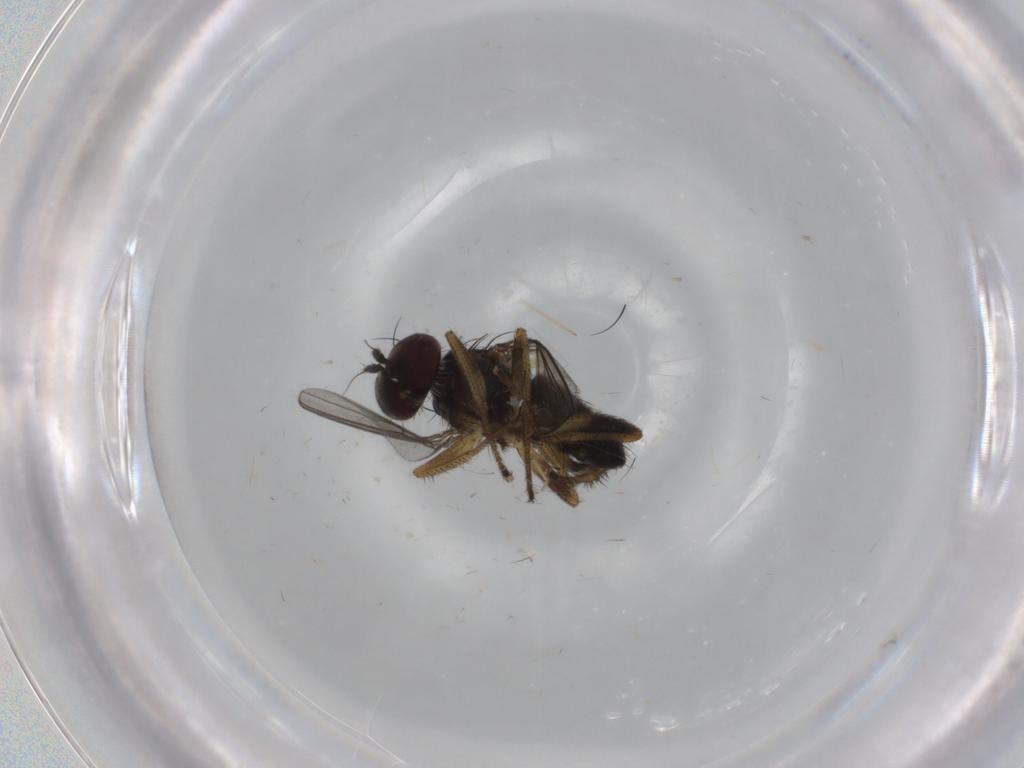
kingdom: Animalia
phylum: Arthropoda
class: Insecta
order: Diptera
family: Dolichopodidae
